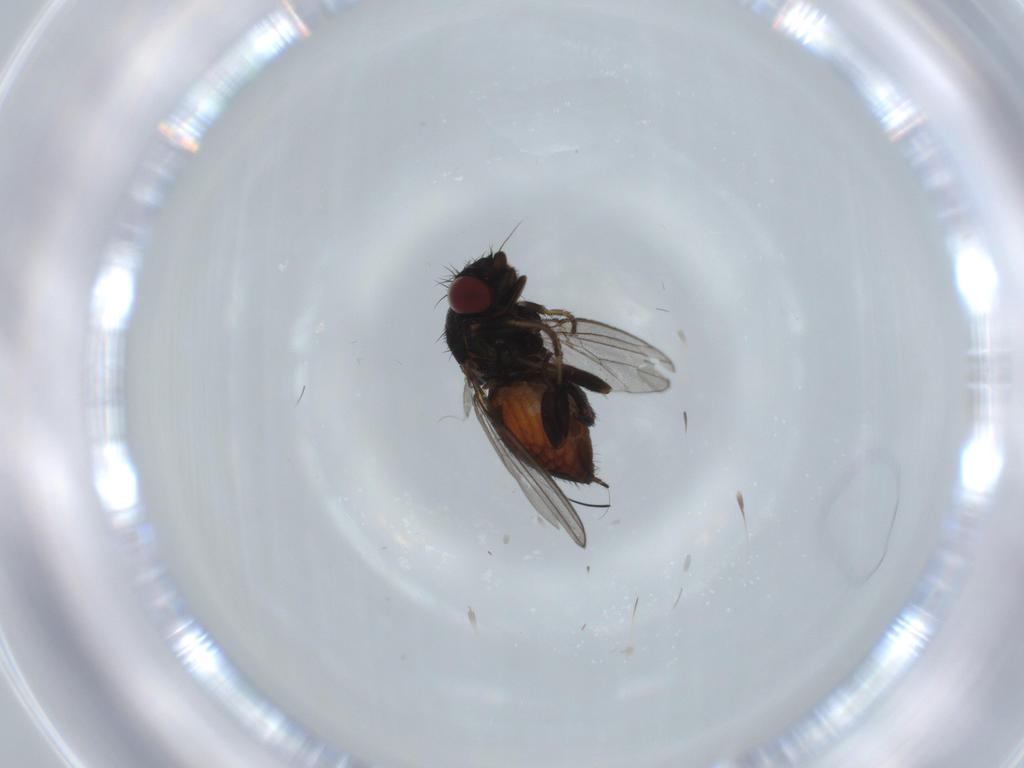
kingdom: Animalia
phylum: Arthropoda
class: Insecta
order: Diptera
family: Milichiidae
